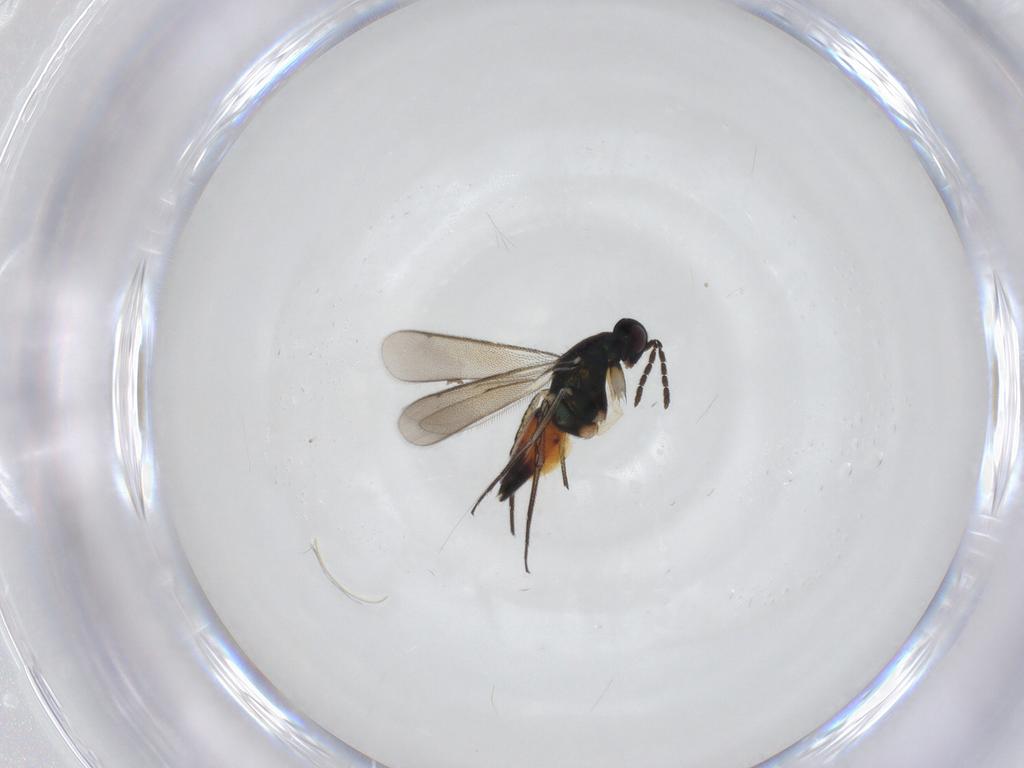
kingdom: Animalia
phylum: Arthropoda
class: Insecta
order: Hymenoptera
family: Eulophidae
